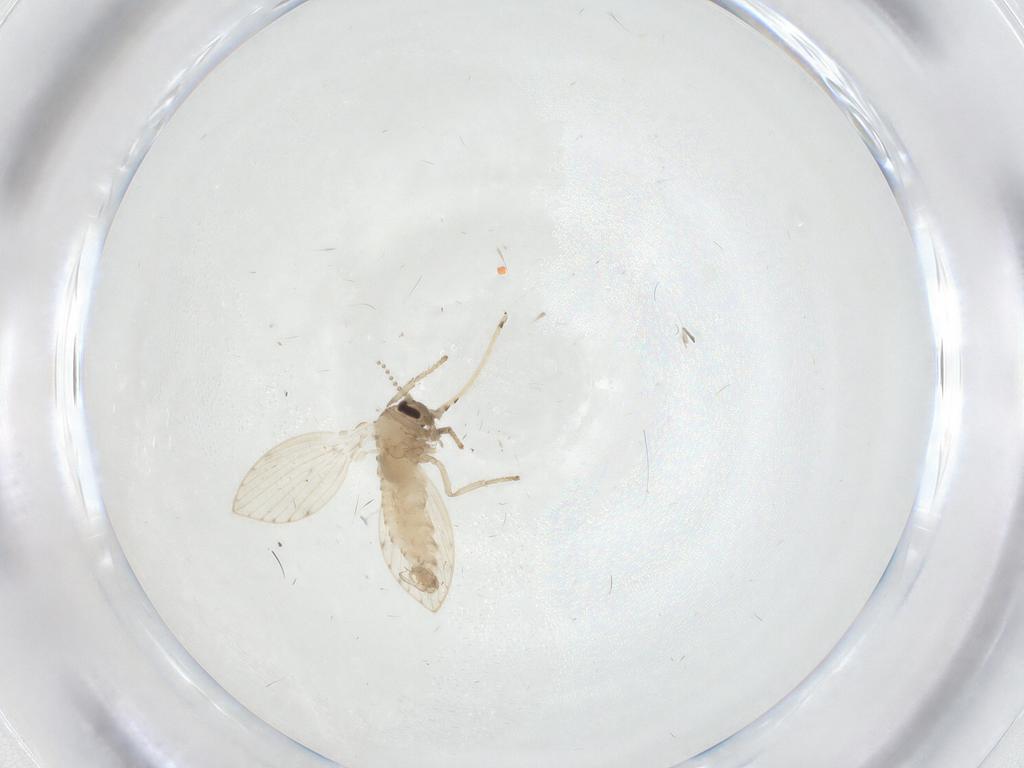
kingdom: Animalia
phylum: Arthropoda
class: Insecta
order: Diptera
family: Psychodidae
